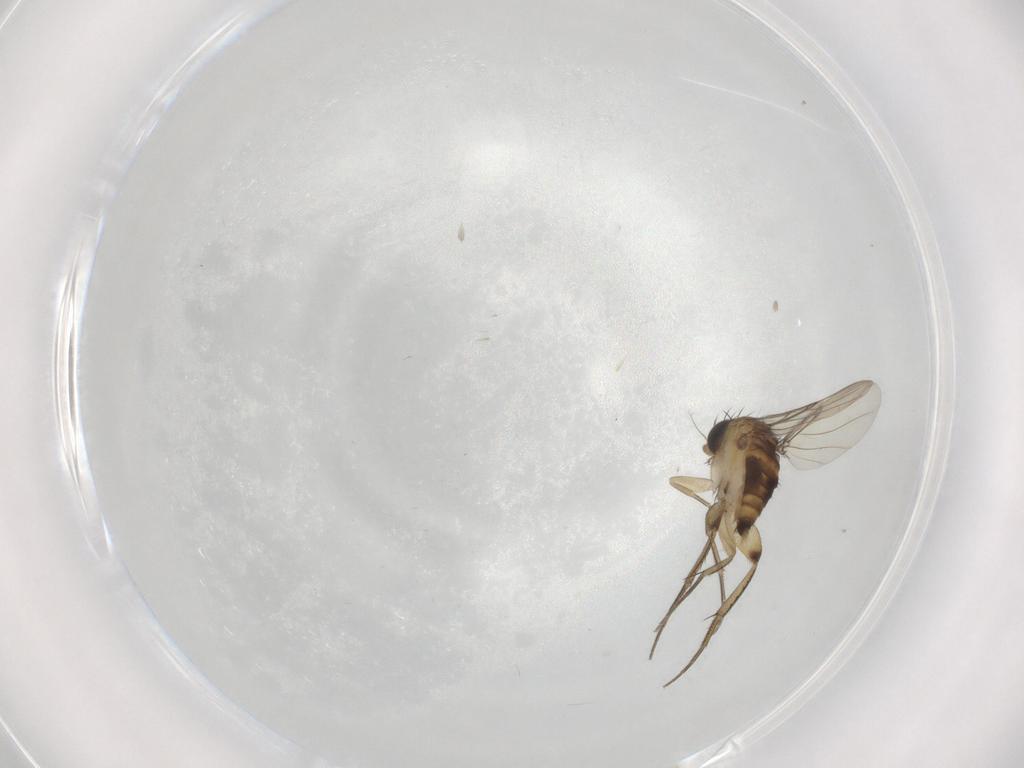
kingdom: Animalia
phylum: Arthropoda
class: Insecta
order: Diptera
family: Phoridae
